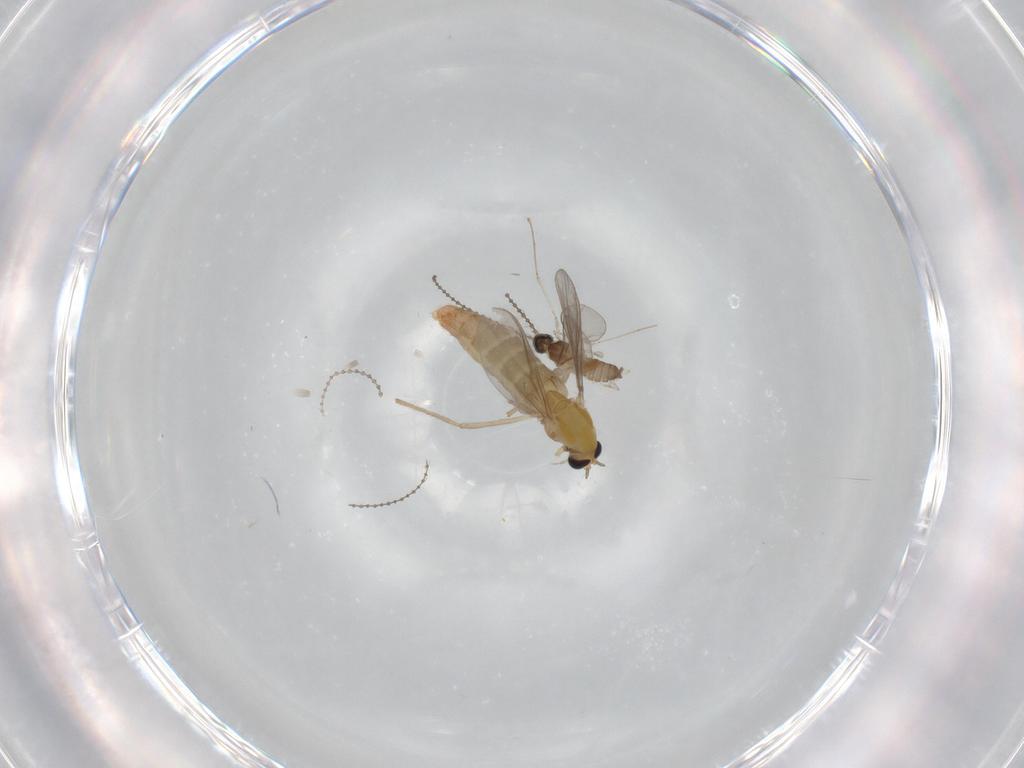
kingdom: Animalia
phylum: Arthropoda
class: Insecta
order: Diptera
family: Chironomidae
